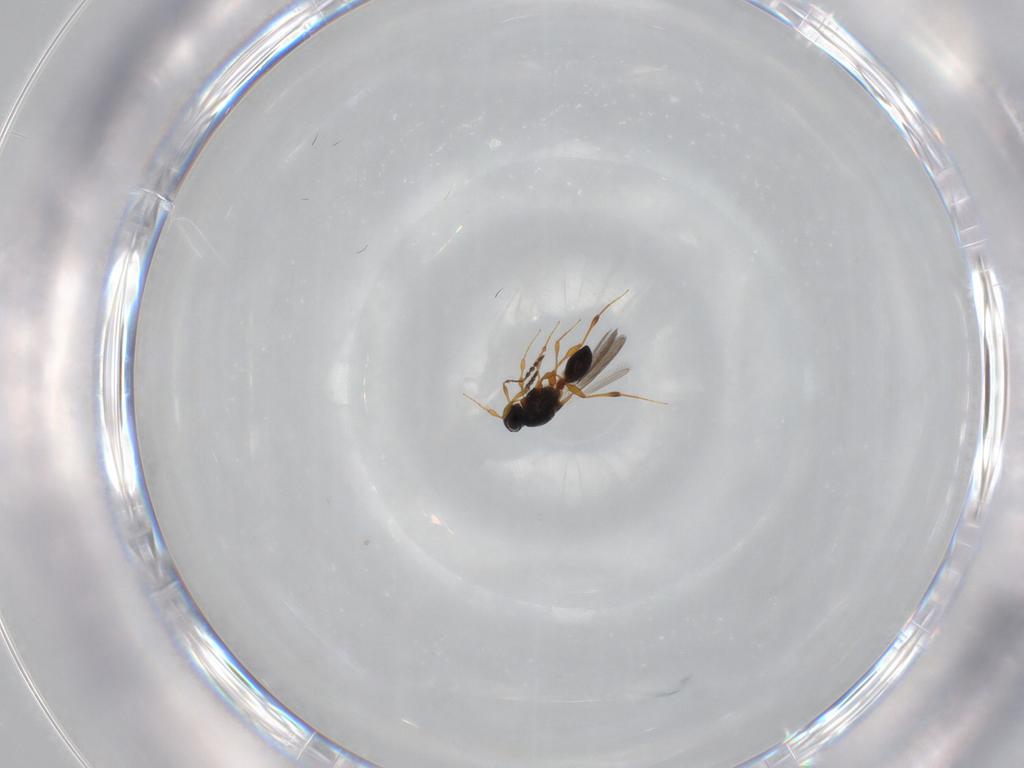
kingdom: Animalia
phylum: Arthropoda
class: Insecta
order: Hymenoptera
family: Platygastridae
